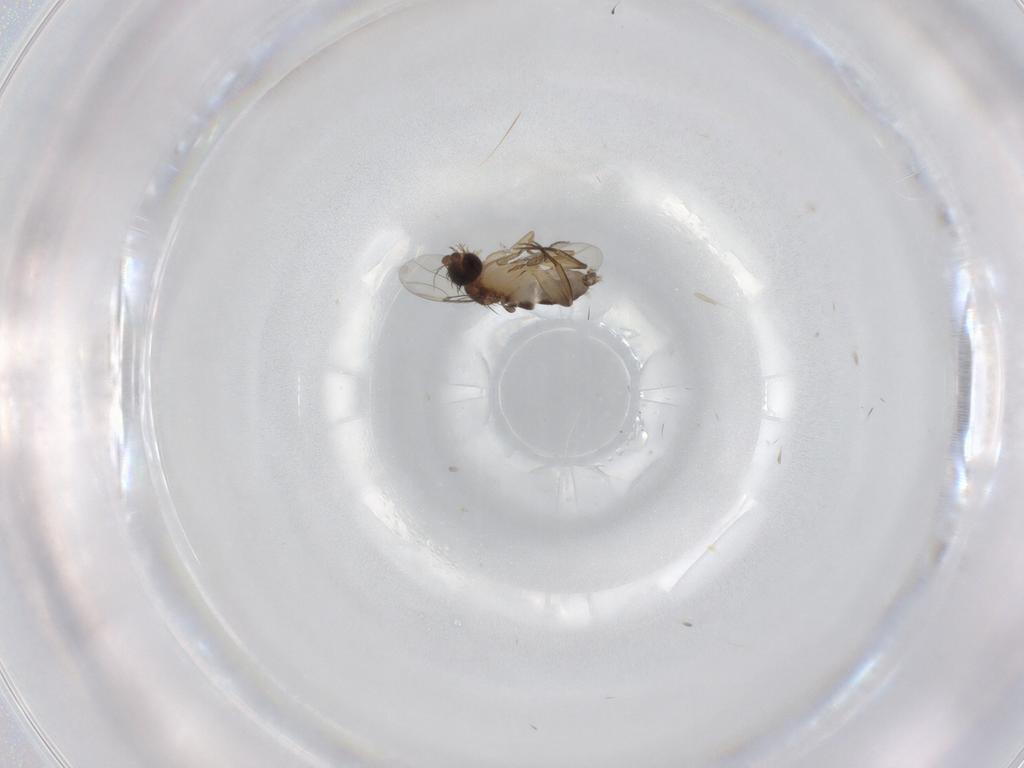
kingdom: Animalia
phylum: Arthropoda
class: Insecta
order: Diptera
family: Phoridae
